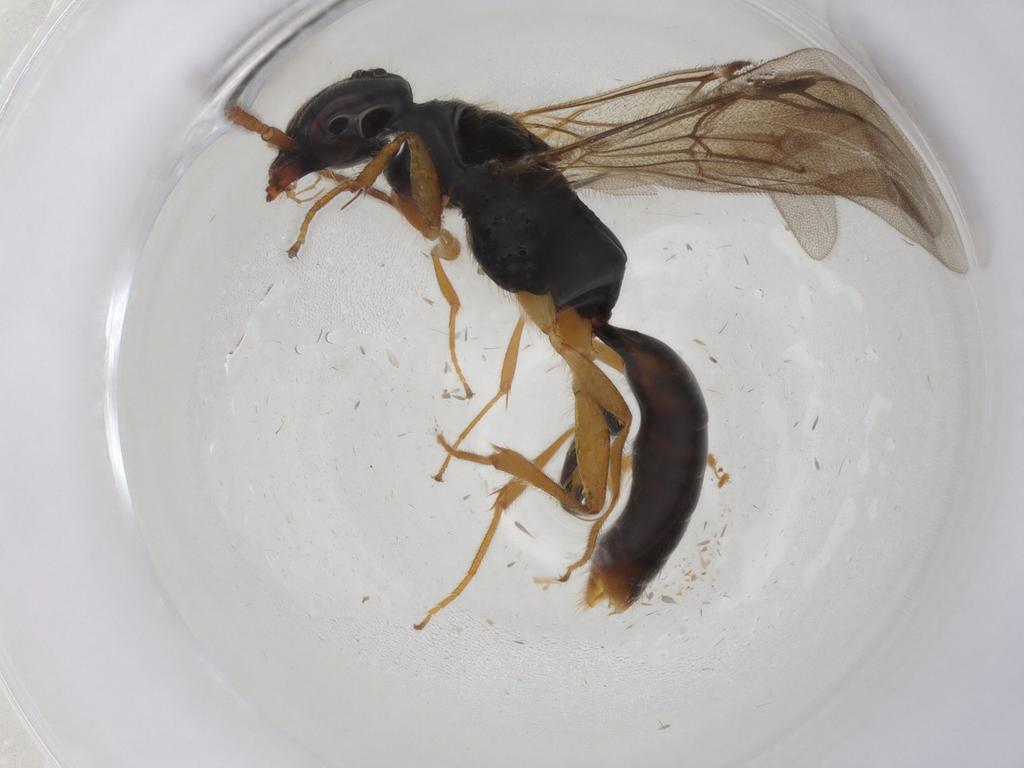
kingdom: Animalia
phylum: Arthropoda
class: Insecta
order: Hymenoptera
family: Bethylidae
